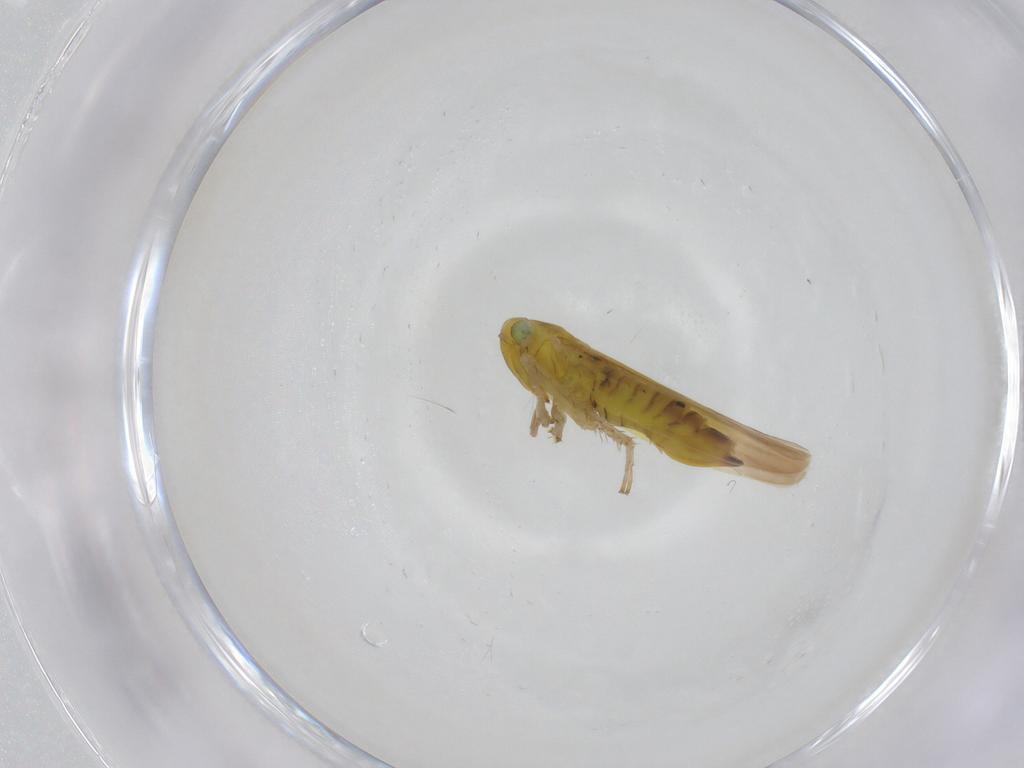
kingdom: Animalia
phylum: Arthropoda
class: Insecta
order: Hemiptera
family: Cicadellidae
